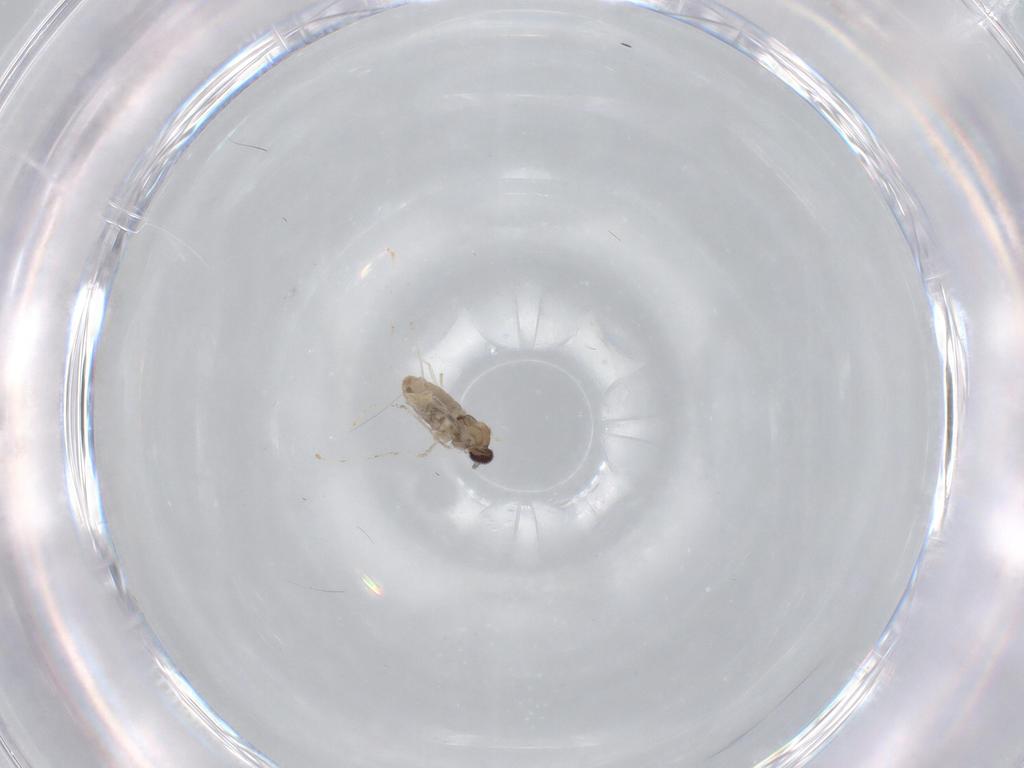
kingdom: Animalia
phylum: Arthropoda
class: Insecta
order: Diptera
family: Cecidomyiidae
